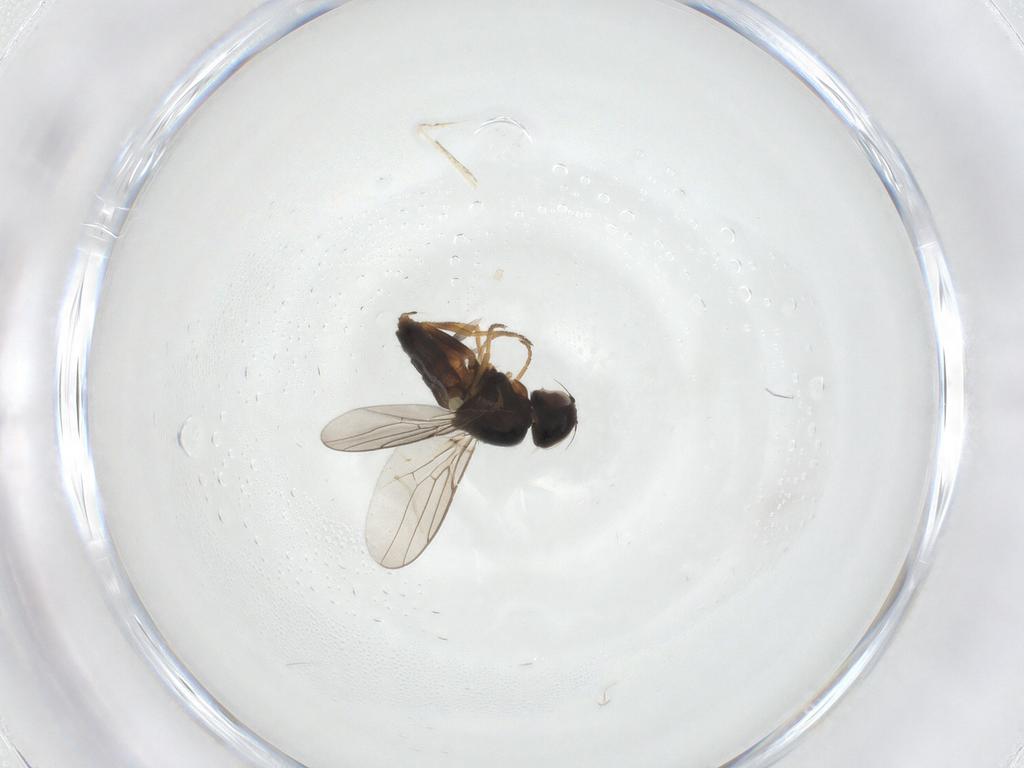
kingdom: Animalia
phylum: Arthropoda
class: Insecta
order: Diptera
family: Chloropidae
